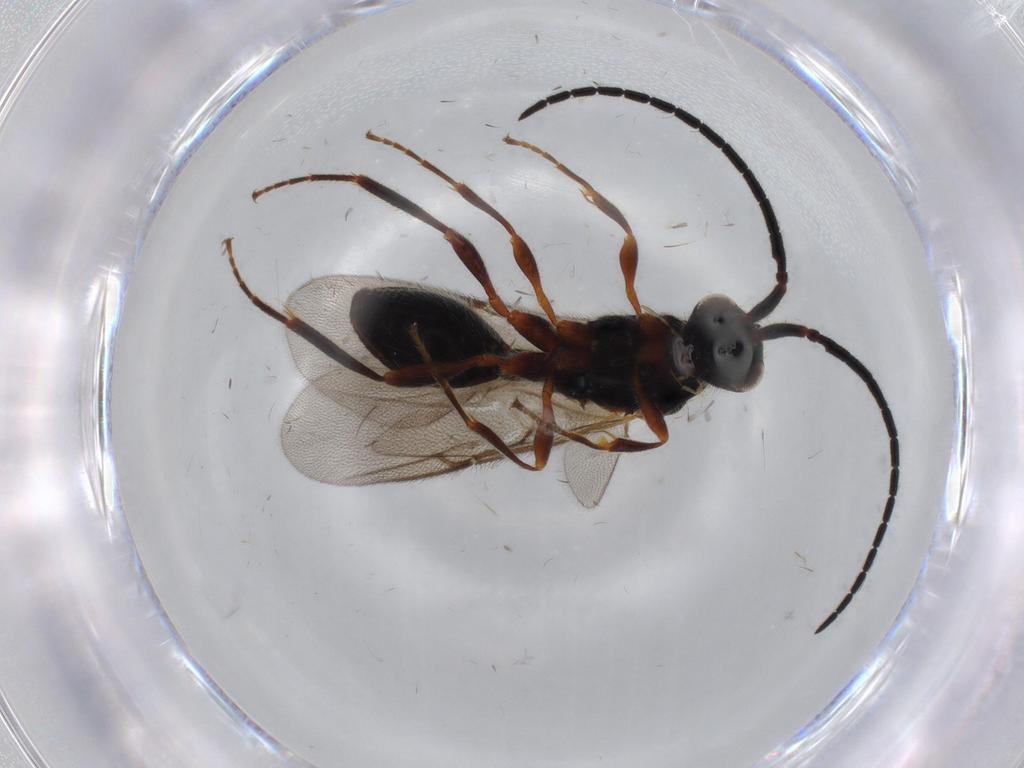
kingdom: Animalia
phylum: Arthropoda
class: Insecta
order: Hymenoptera
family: Diapriidae
